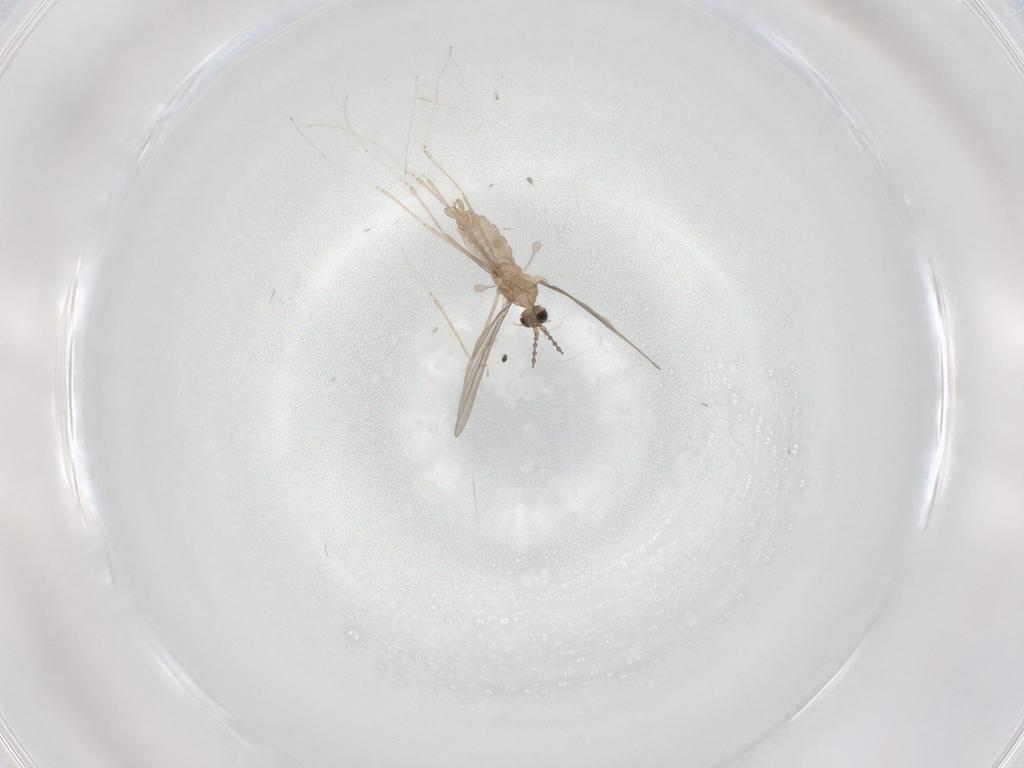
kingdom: Animalia
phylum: Arthropoda
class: Insecta
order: Diptera
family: Cecidomyiidae
